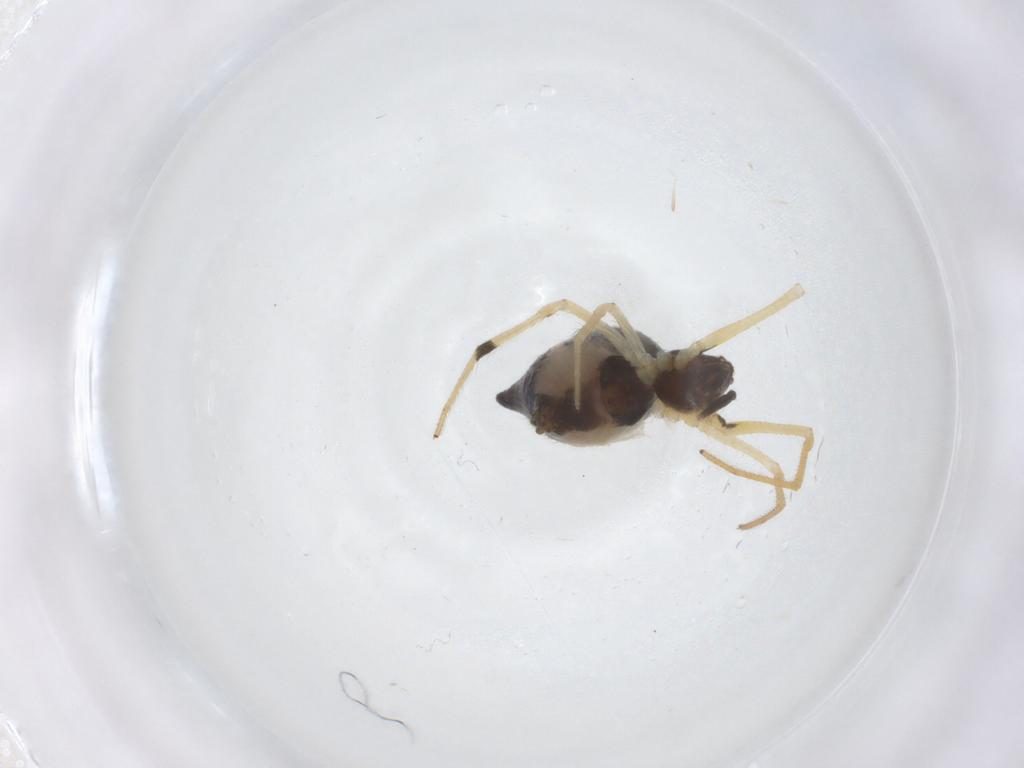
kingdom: Animalia
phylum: Arthropoda
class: Arachnida
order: Araneae
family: Theridiidae
